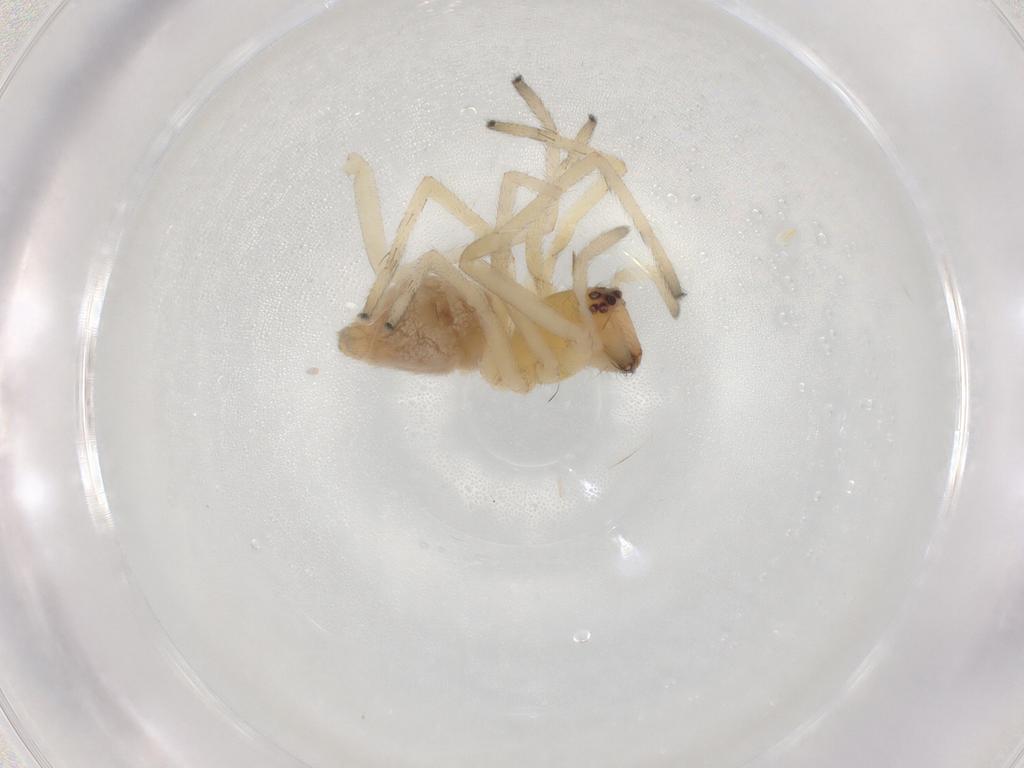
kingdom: Animalia
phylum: Arthropoda
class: Arachnida
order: Araneae
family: Cheiracanthiidae
